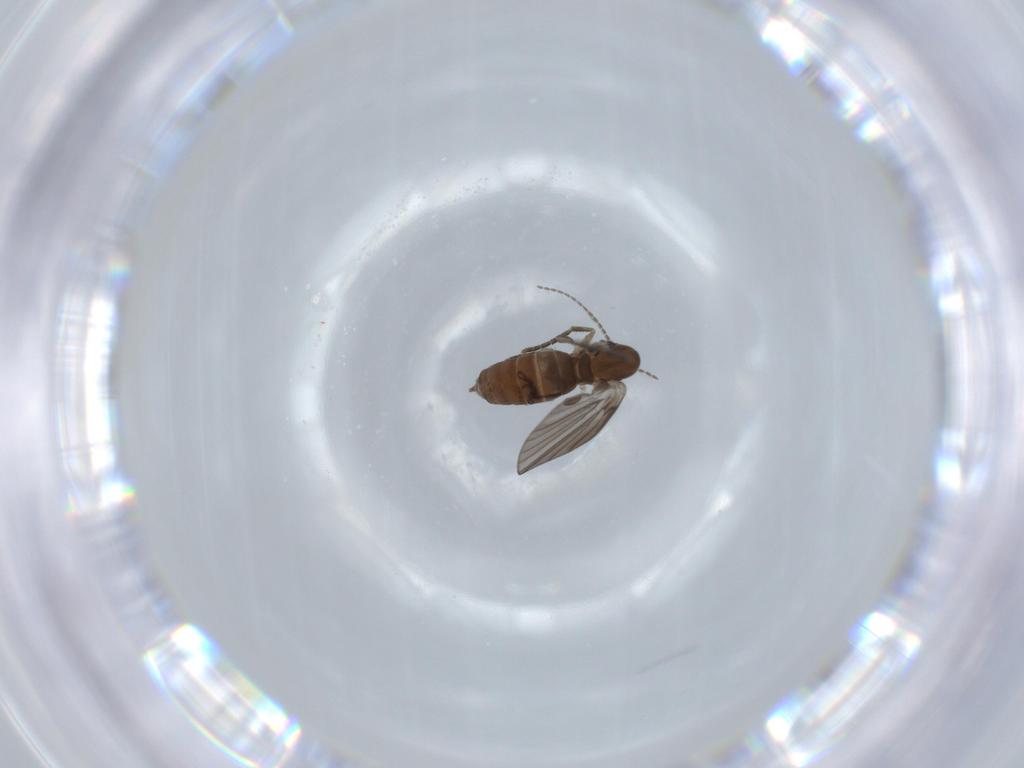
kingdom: Animalia
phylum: Arthropoda
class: Insecta
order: Diptera
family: Psychodidae
